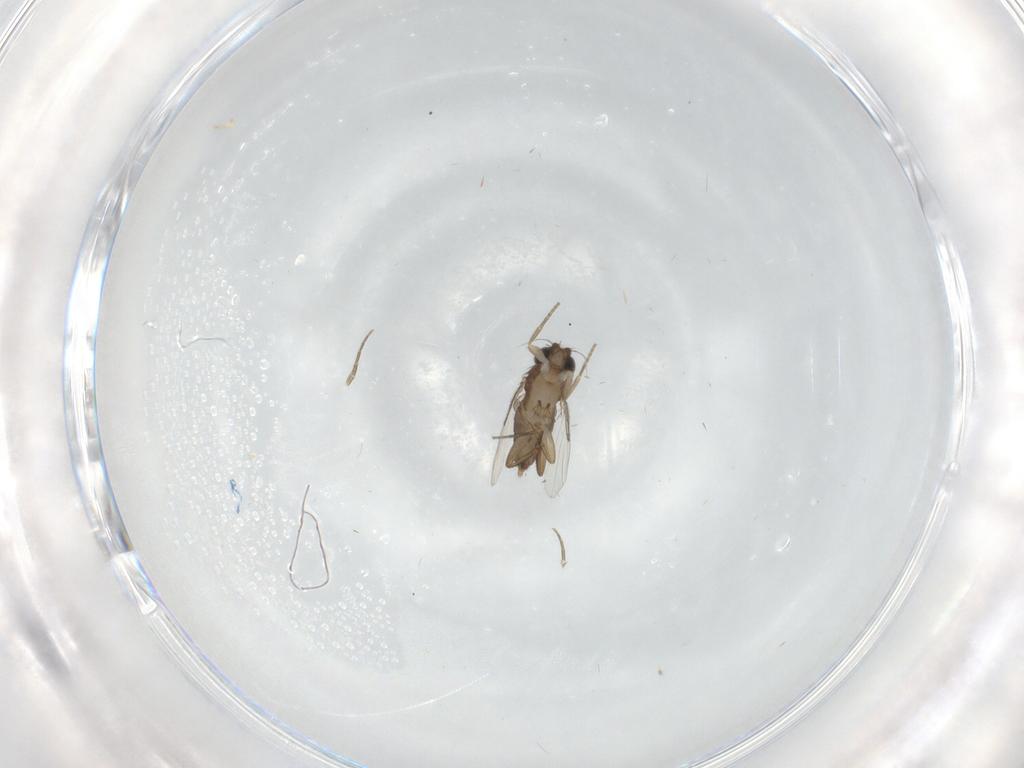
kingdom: Animalia
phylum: Arthropoda
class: Insecta
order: Diptera
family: Phoridae
